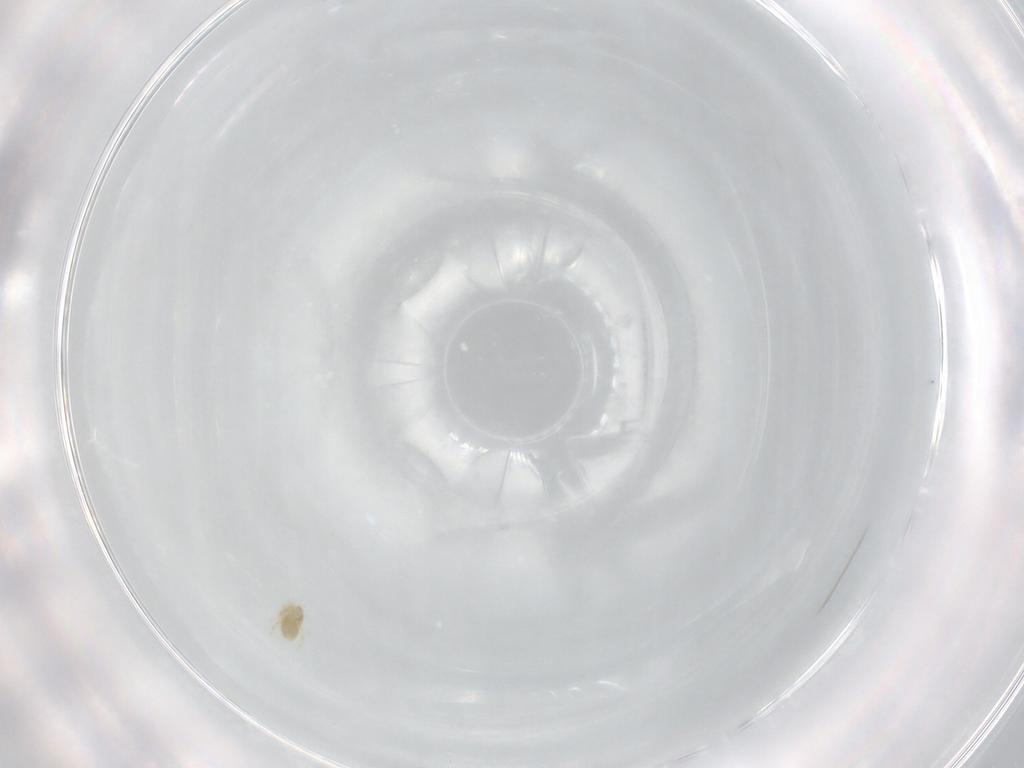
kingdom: Animalia
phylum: Arthropoda
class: Arachnida
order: Trombidiformes
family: Eupodidae
